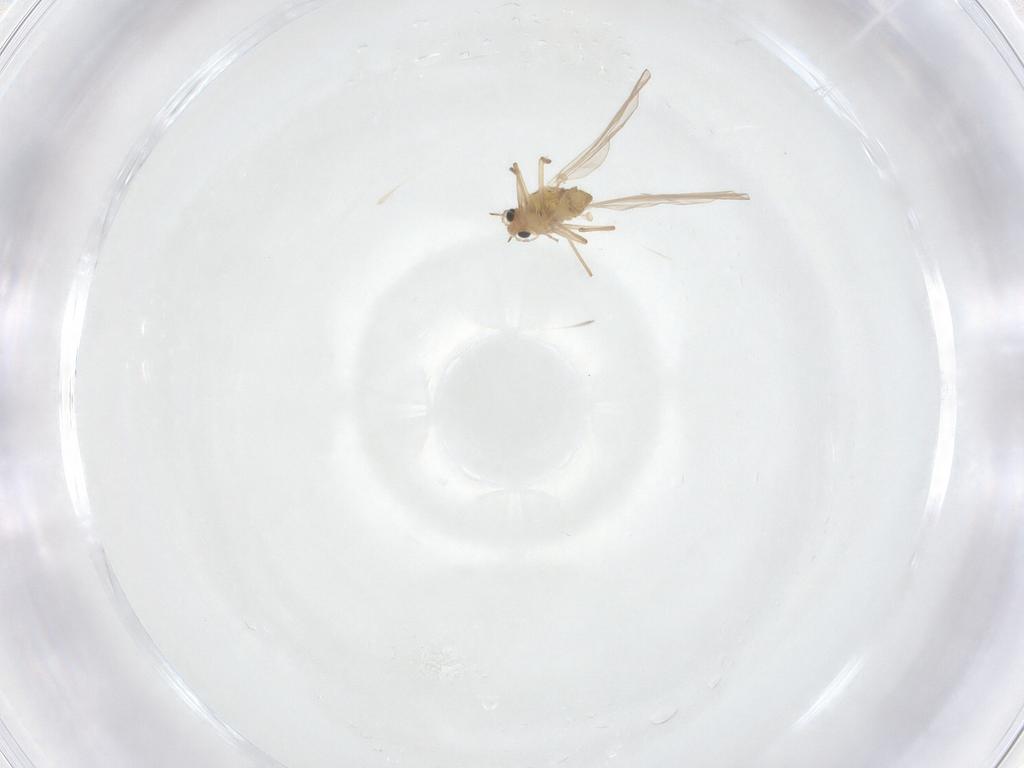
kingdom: Animalia
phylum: Arthropoda
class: Insecta
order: Diptera
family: Chironomidae
